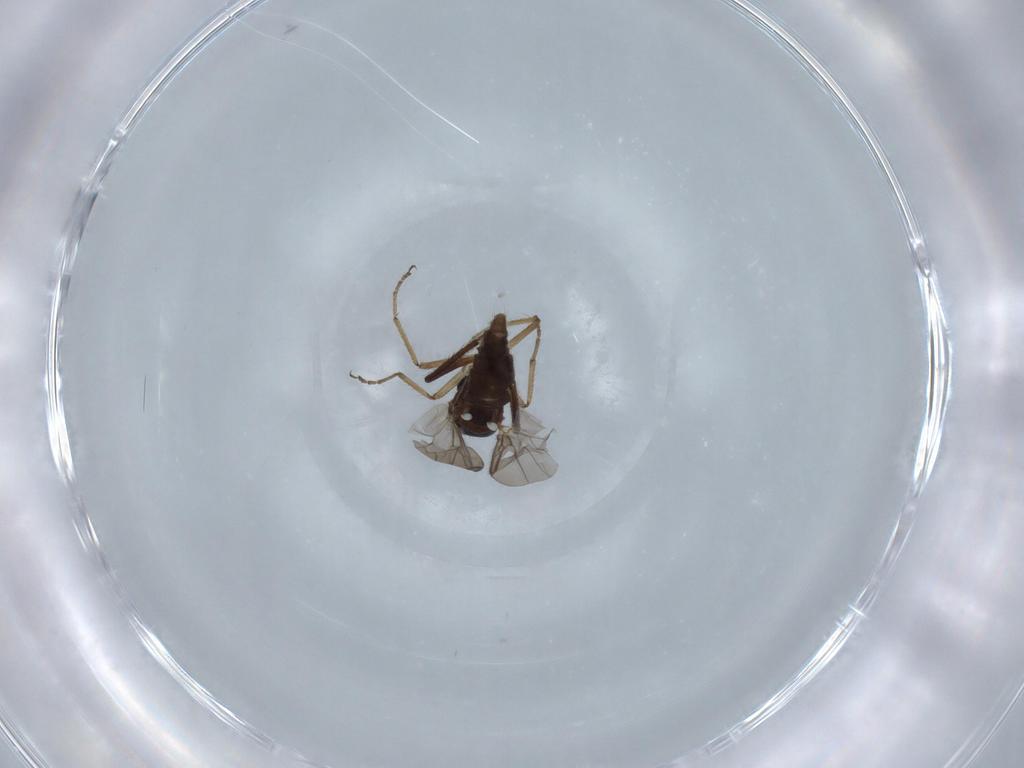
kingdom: Animalia
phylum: Arthropoda
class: Insecta
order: Diptera
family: Ceratopogonidae
